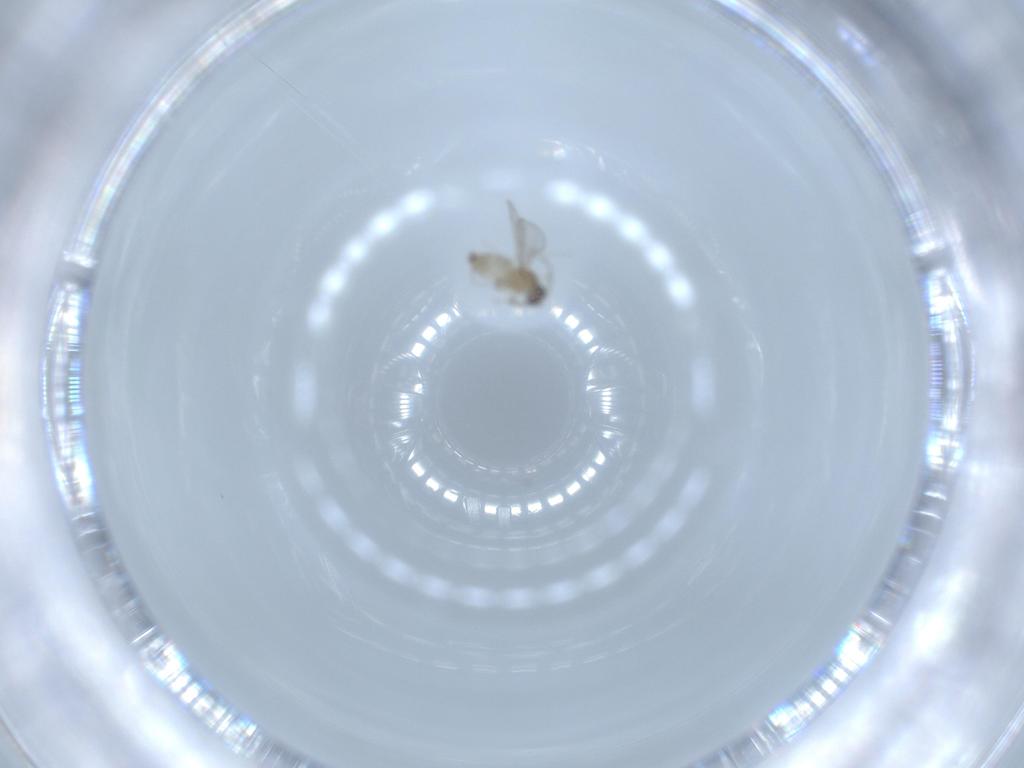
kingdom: Animalia
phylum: Arthropoda
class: Insecta
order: Diptera
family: Cecidomyiidae
